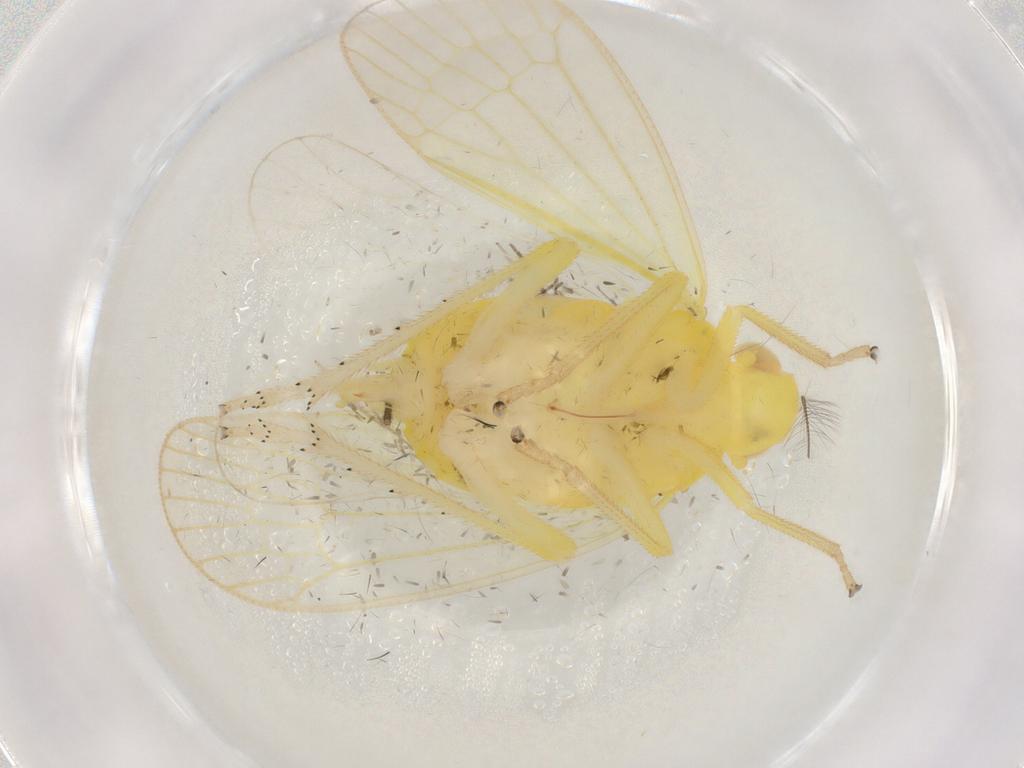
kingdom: Animalia
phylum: Arthropoda
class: Insecta
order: Hemiptera
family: Tropiduchidae
